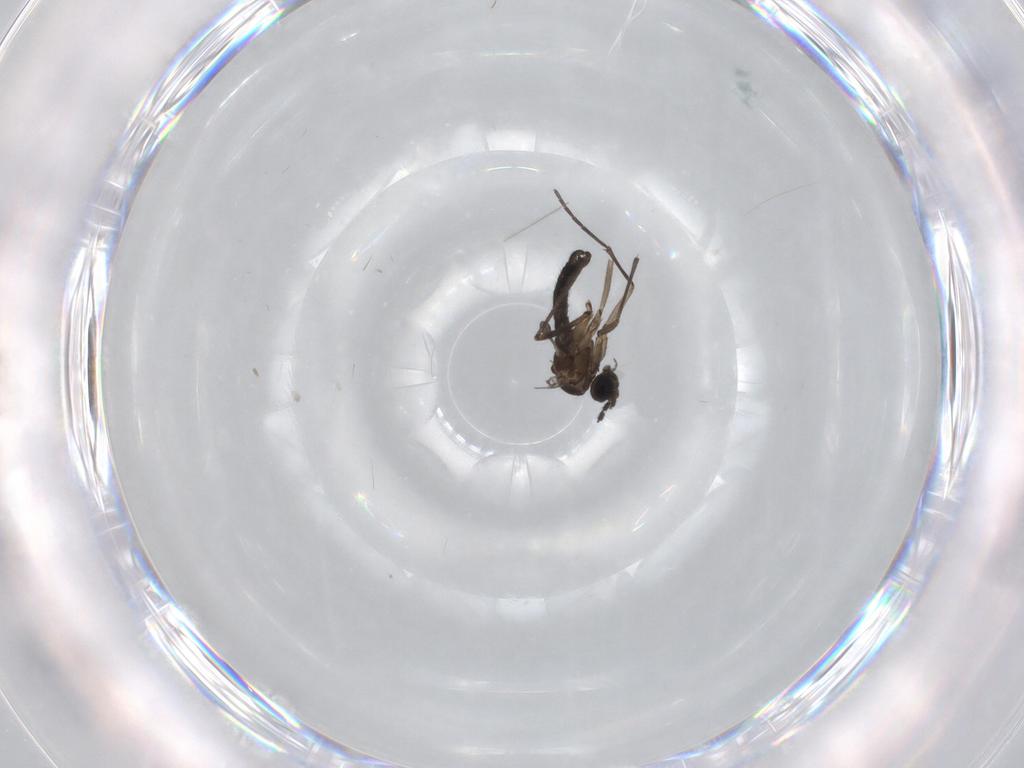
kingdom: Animalia
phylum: Arthropoda
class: Insecta
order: Diptera
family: Sciaridae
